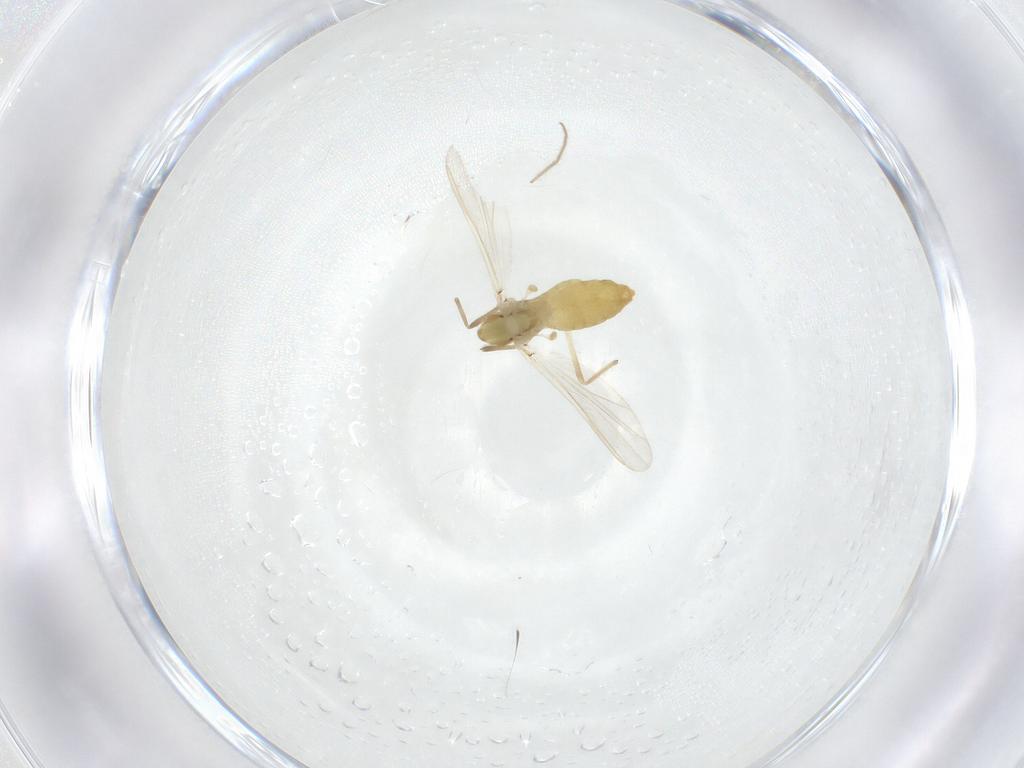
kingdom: Animalia
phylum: Arthropoda
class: Insecta
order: Diptera
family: Chironomidae
